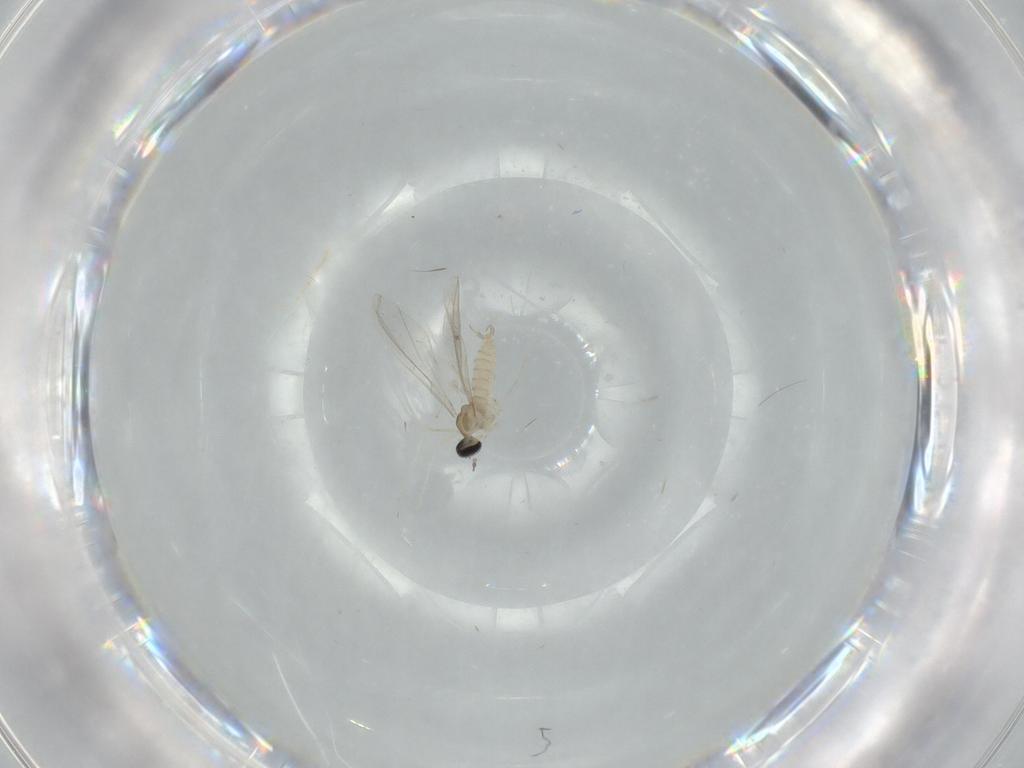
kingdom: Animalia
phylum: Arthropoda
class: Insecta
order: Diptera
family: Cecidomyiidae
